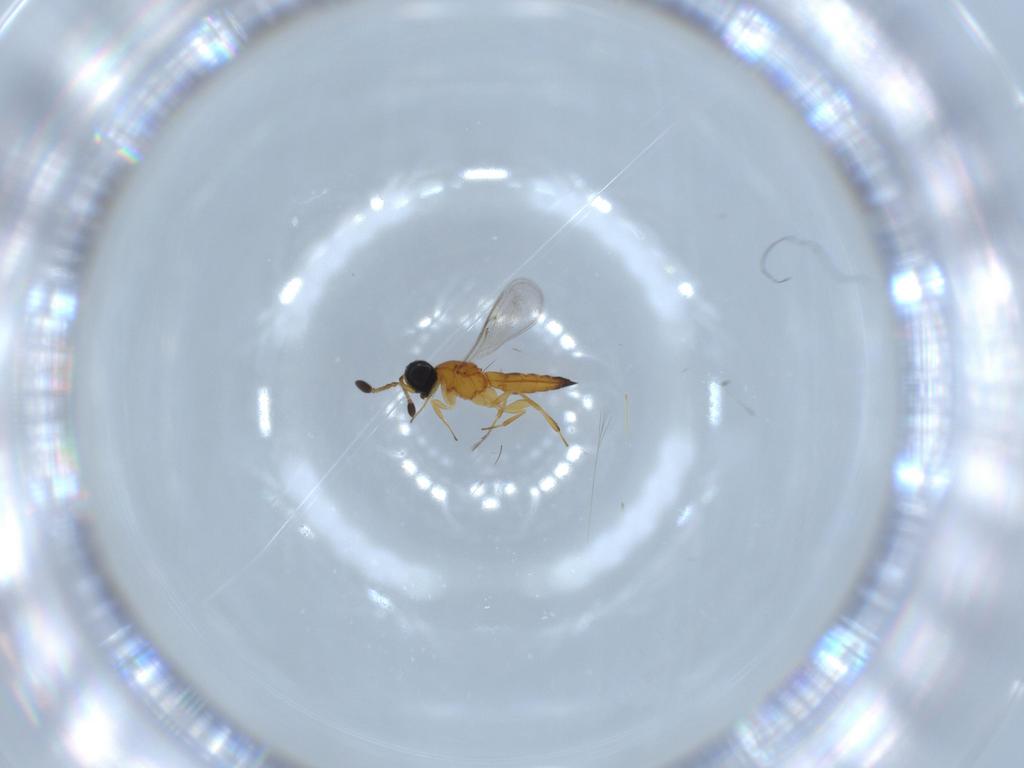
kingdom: Animalia
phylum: Arthropoda
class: Insecta
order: Hymenoptera
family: Scelionidae
